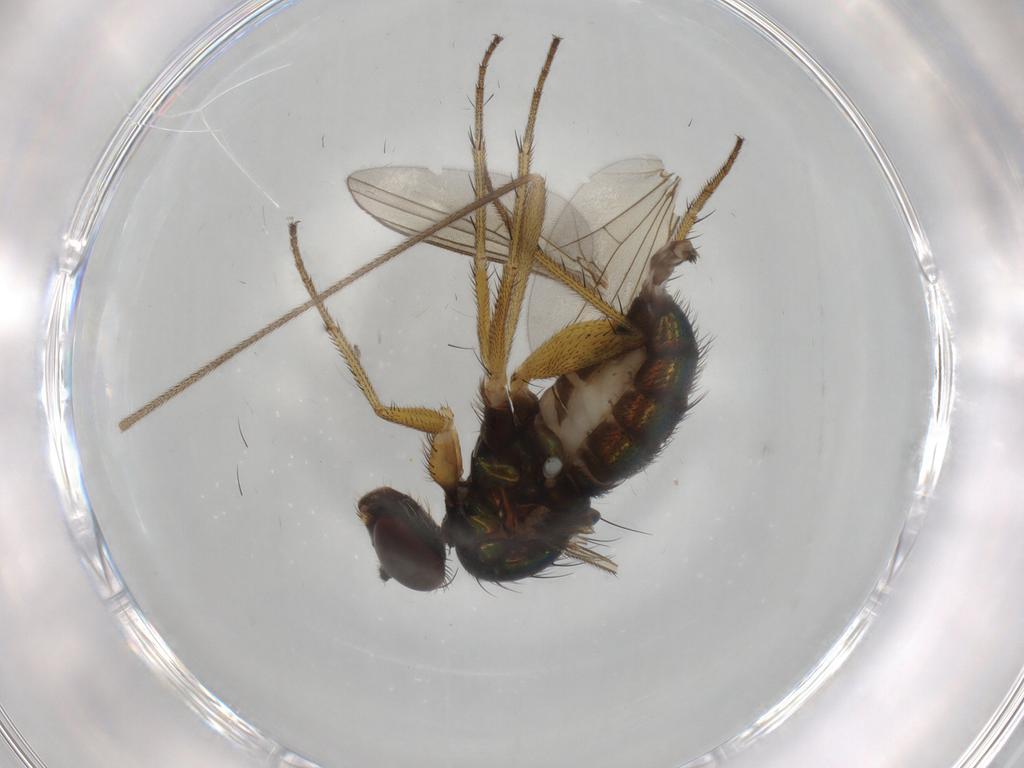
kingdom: Animalia
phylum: Arthropoda
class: Insecta
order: Diptera
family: Dolichopodidae
